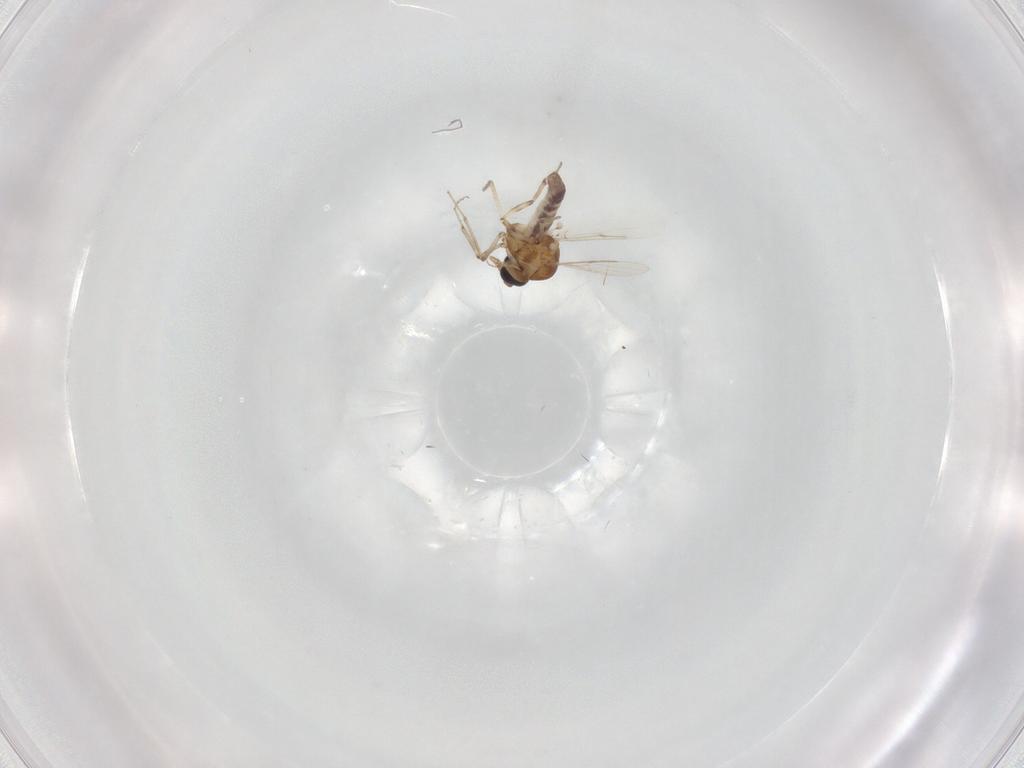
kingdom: Animalia
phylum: Arthropoda
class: Insecta
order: Diptera
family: Ceratopogonidae
